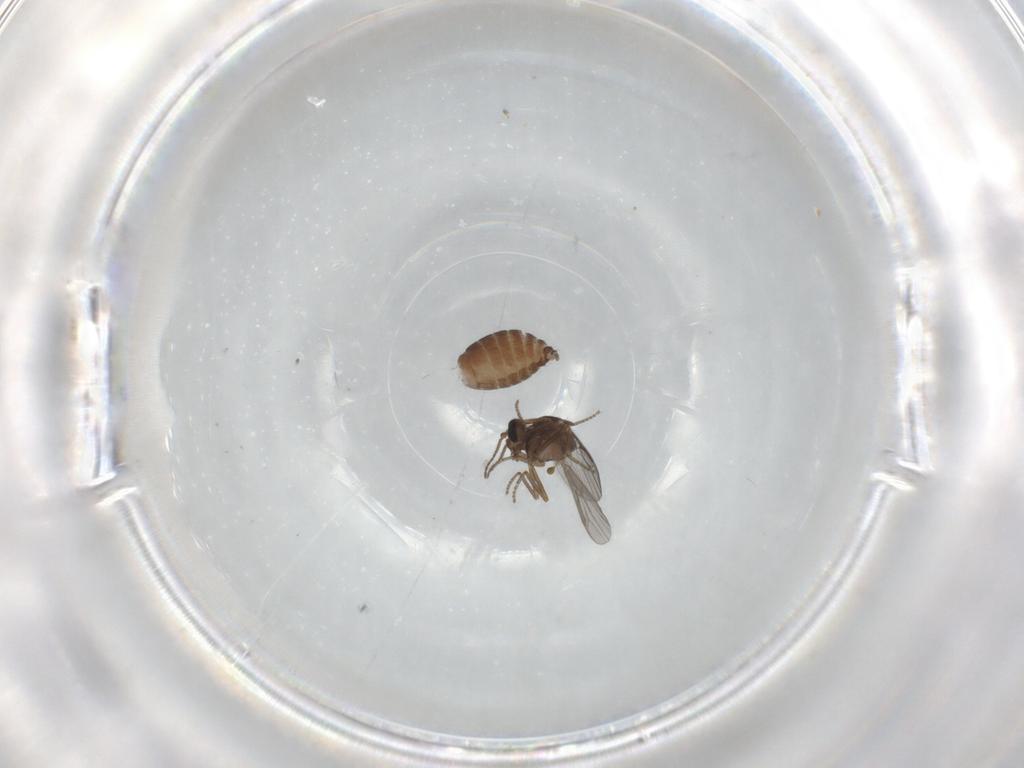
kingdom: Animalia
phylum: Arthropoda
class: Insecta
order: Diptera
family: Ceratopogonidae
